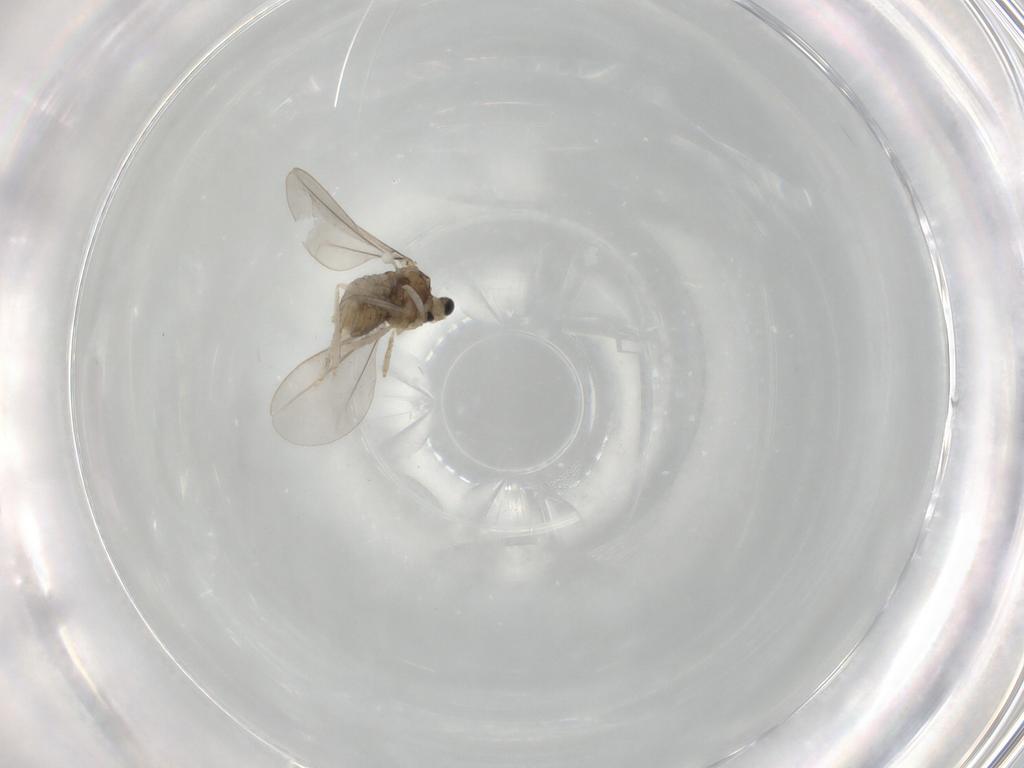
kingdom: Animalia
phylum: Arthropoda
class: Insecta
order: Diptera
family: Cecidomyiidae
